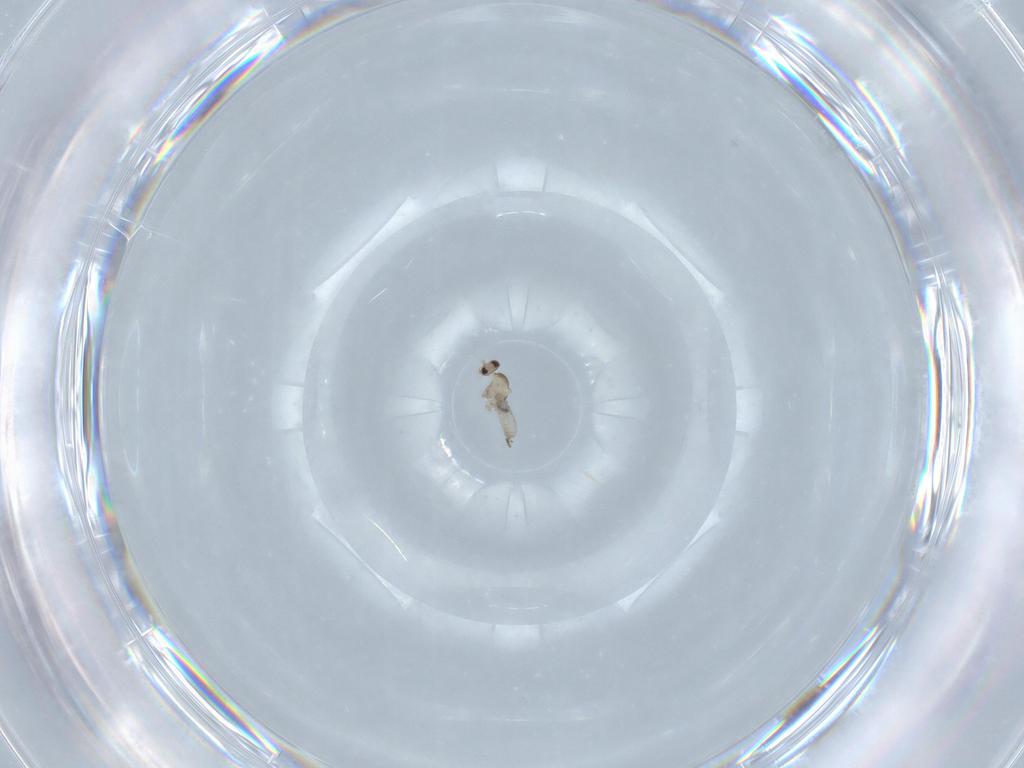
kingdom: Animalia
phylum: Arthropoda
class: Insecta
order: Diptera
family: Cecidomyiidae
